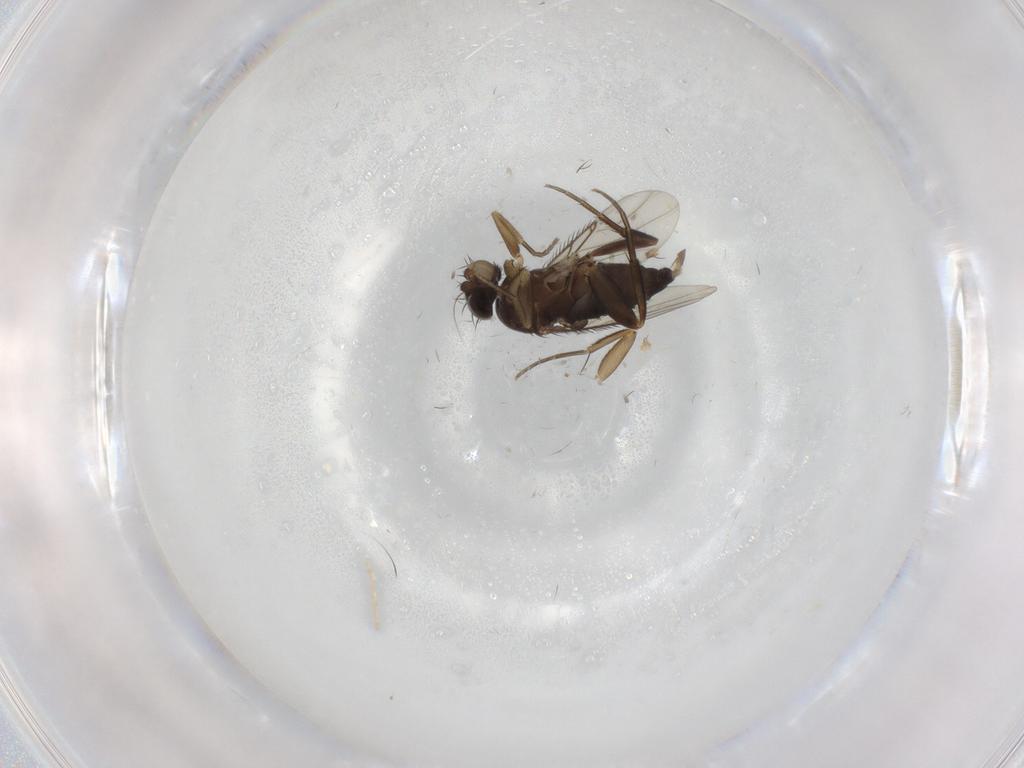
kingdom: Animalia
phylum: Arthropoda
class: Insecta
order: Diptera
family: Phoridae
